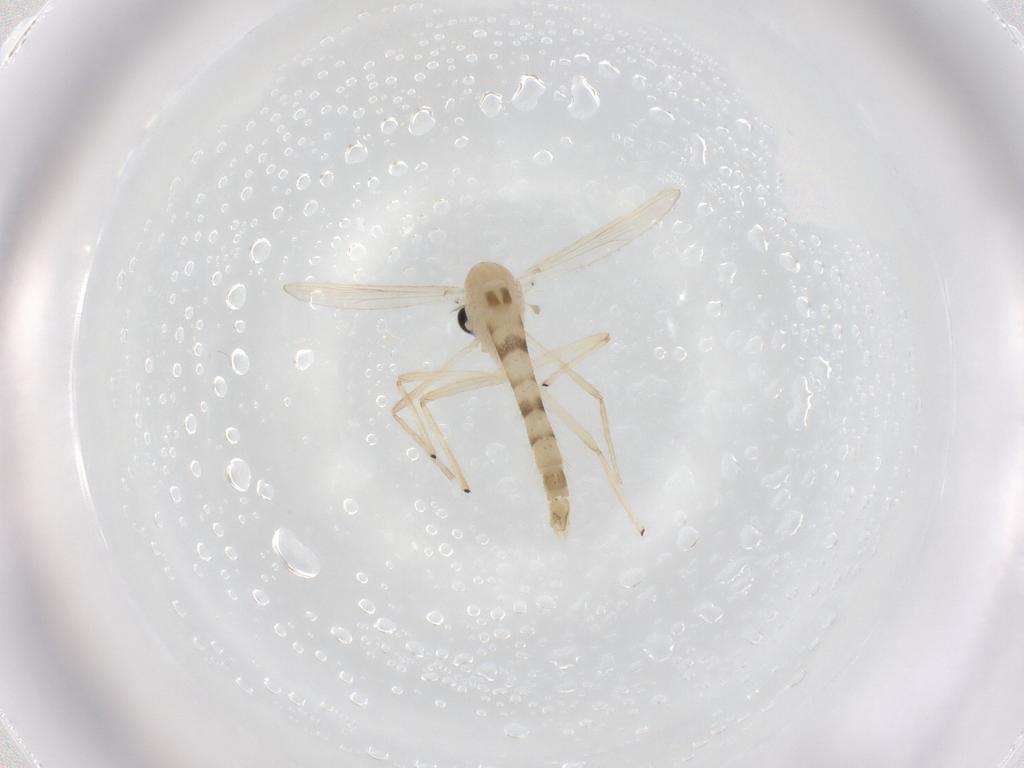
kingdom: Animalia
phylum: Arthropoda
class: Insecta
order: Diptera
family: Chironomidae
